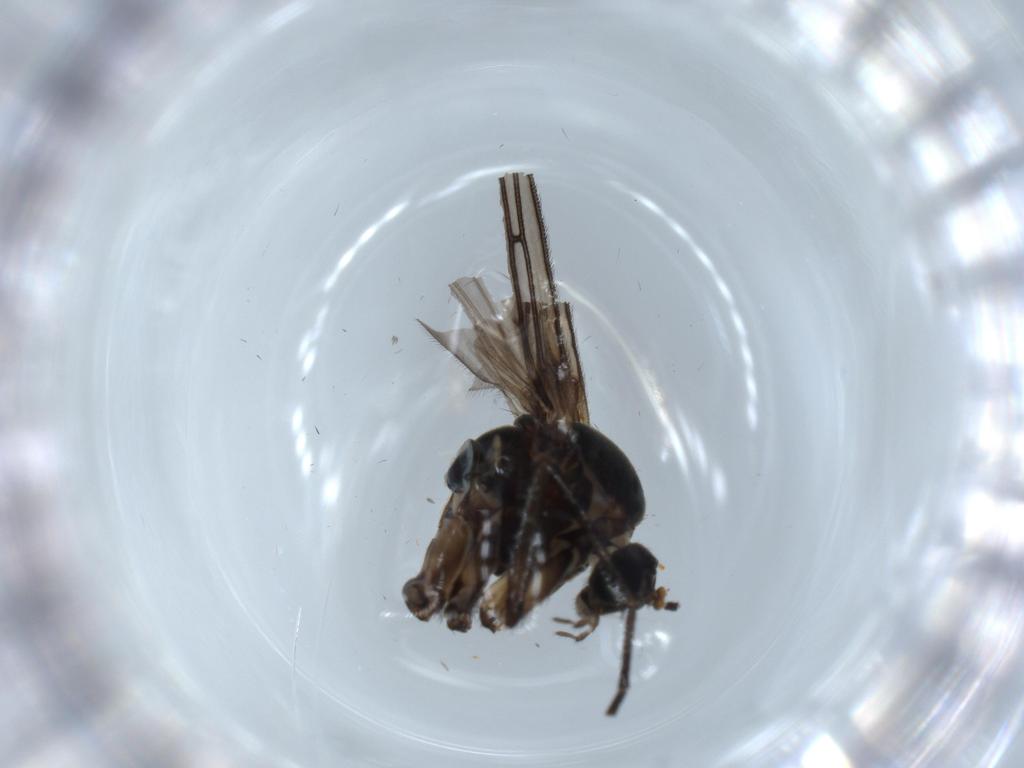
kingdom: Animalia
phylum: Arthropoda
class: Insecta
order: Diptera
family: Sciaridae
